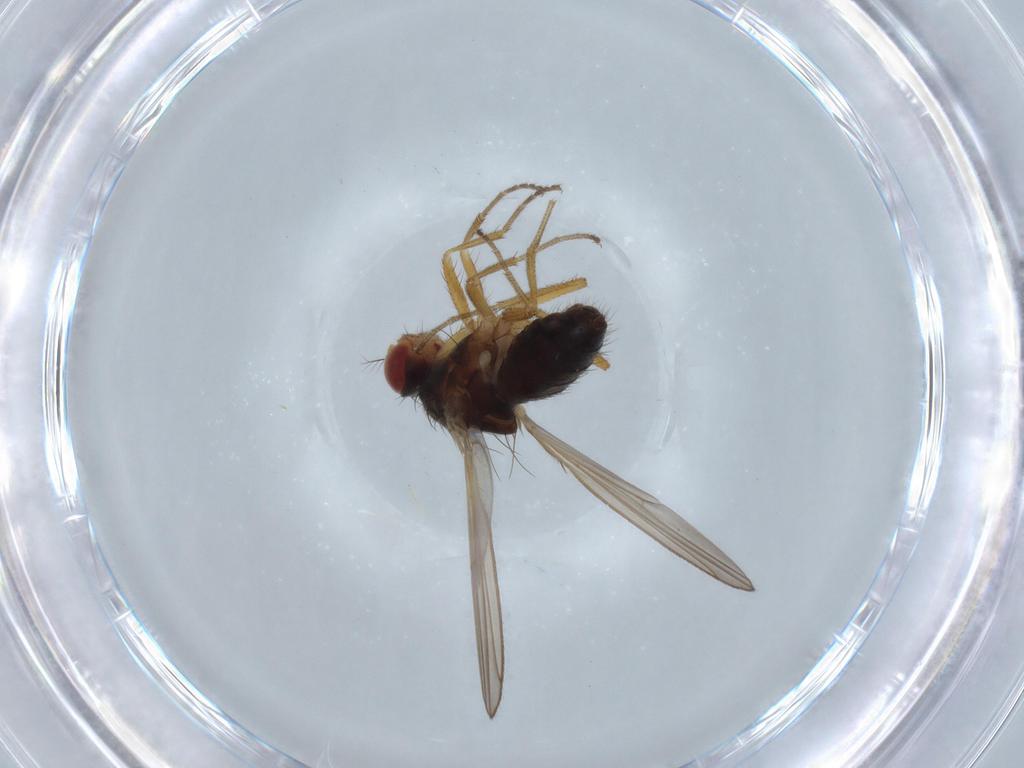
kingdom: Animalia
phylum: Arthropoda
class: Insecta
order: Diptera
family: Drosophilidae
